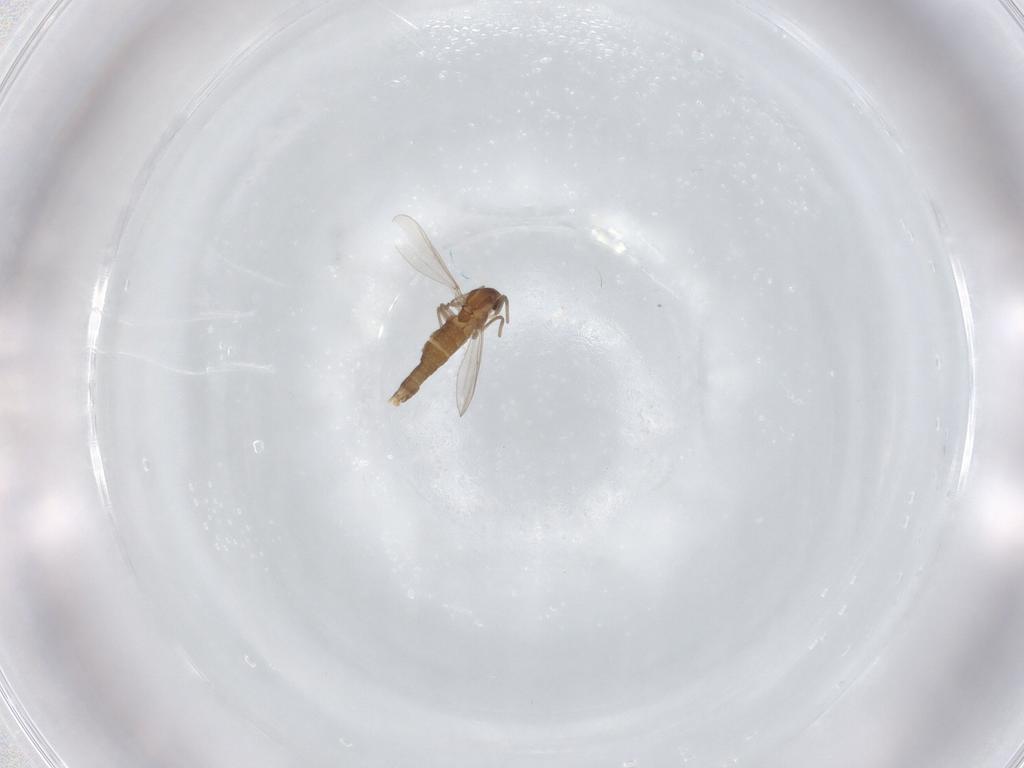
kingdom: Animalia
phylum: Arthropoda
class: Insecta
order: Diptera
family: Chironomidae
